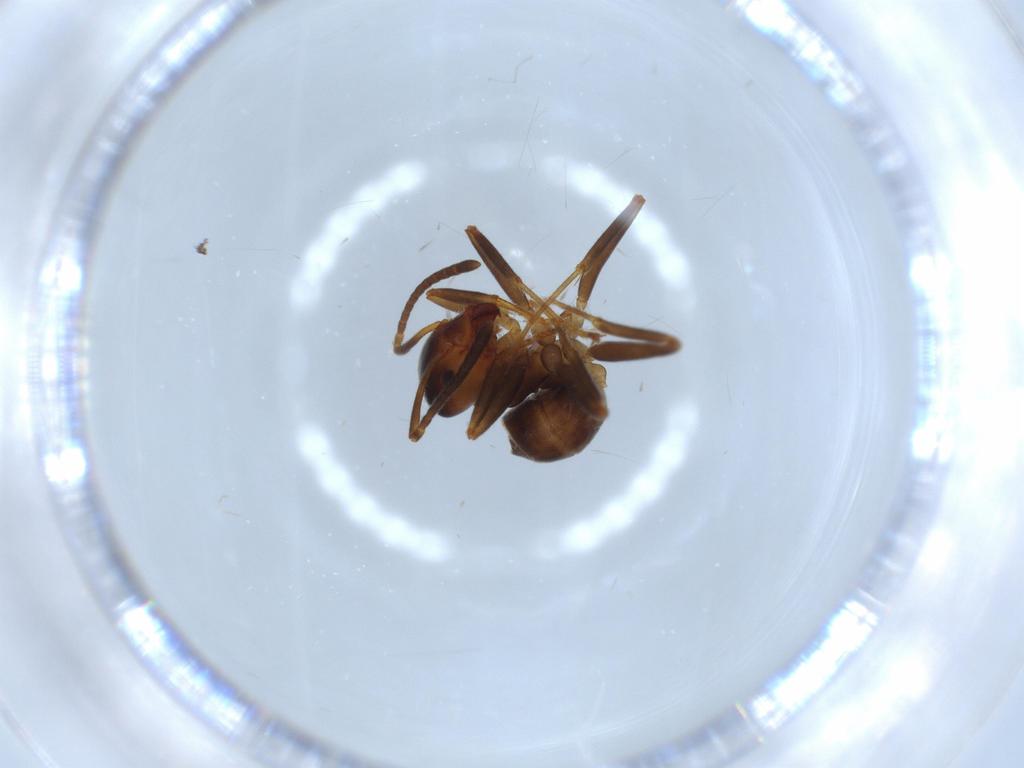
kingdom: Animalia
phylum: Arthropoda
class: Insecta
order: Hymenoptera
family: Formicidae
